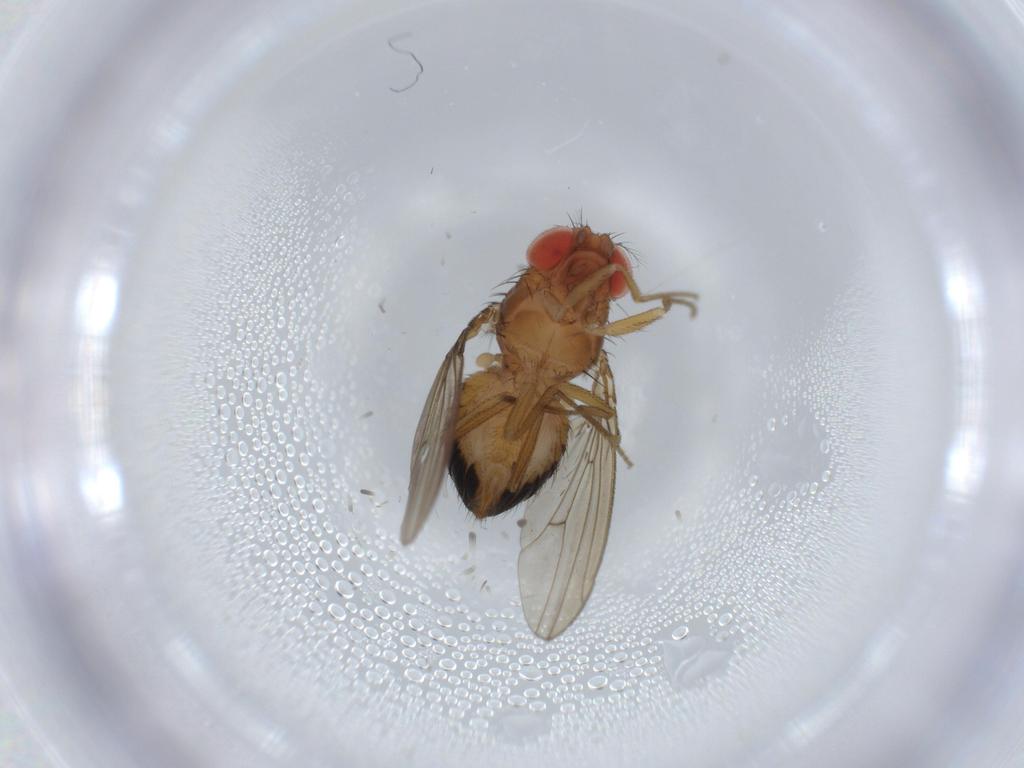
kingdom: Animalia
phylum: Arthropoda
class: Insecta
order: Diptera
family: Drosophilidae
